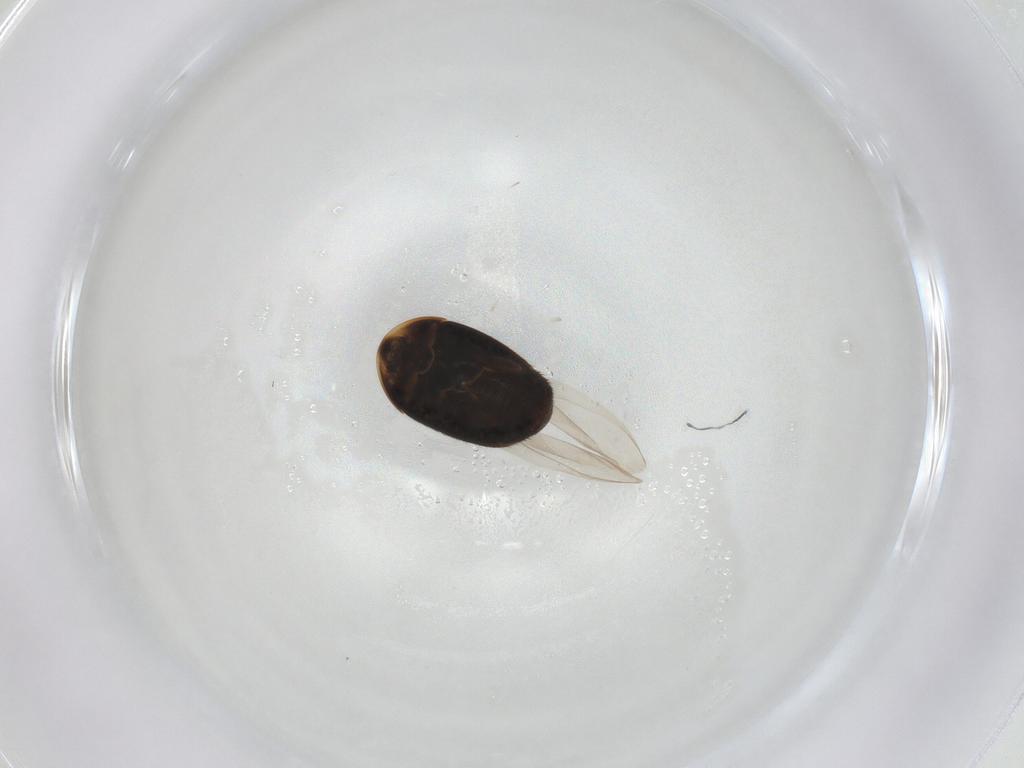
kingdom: Animalia
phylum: Arthropoda
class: Insecta
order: Coleoptera
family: Corylophidae
